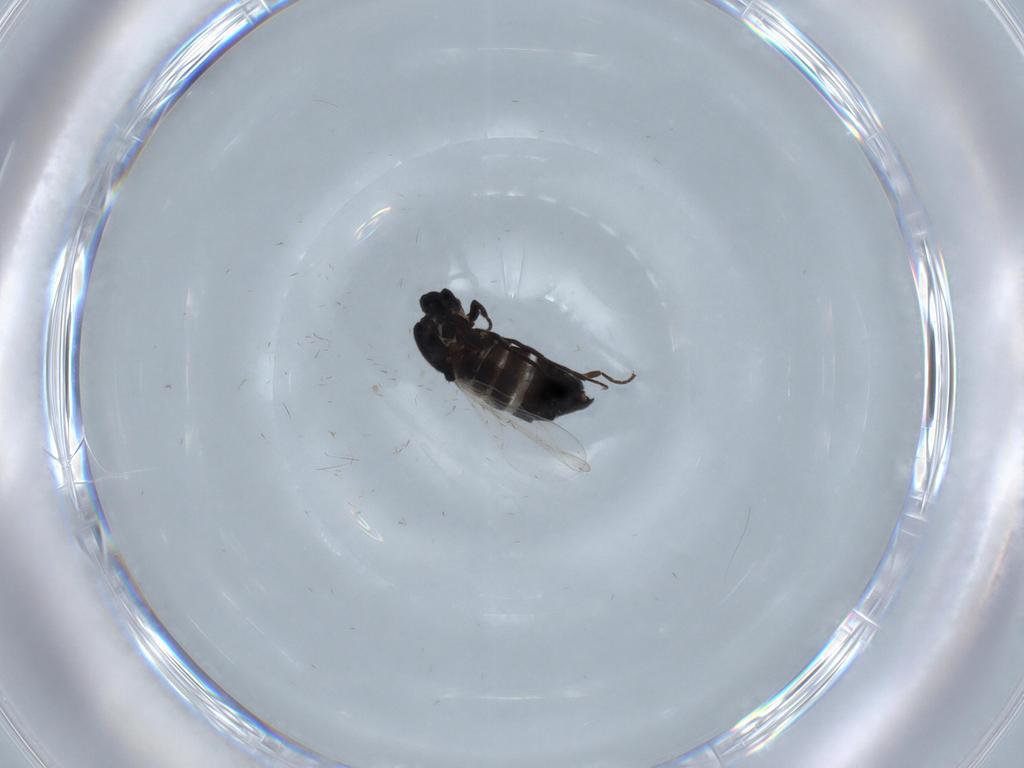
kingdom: Animalia
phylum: Arthropoda
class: Insecta
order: Diptera
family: Scatopsidae
